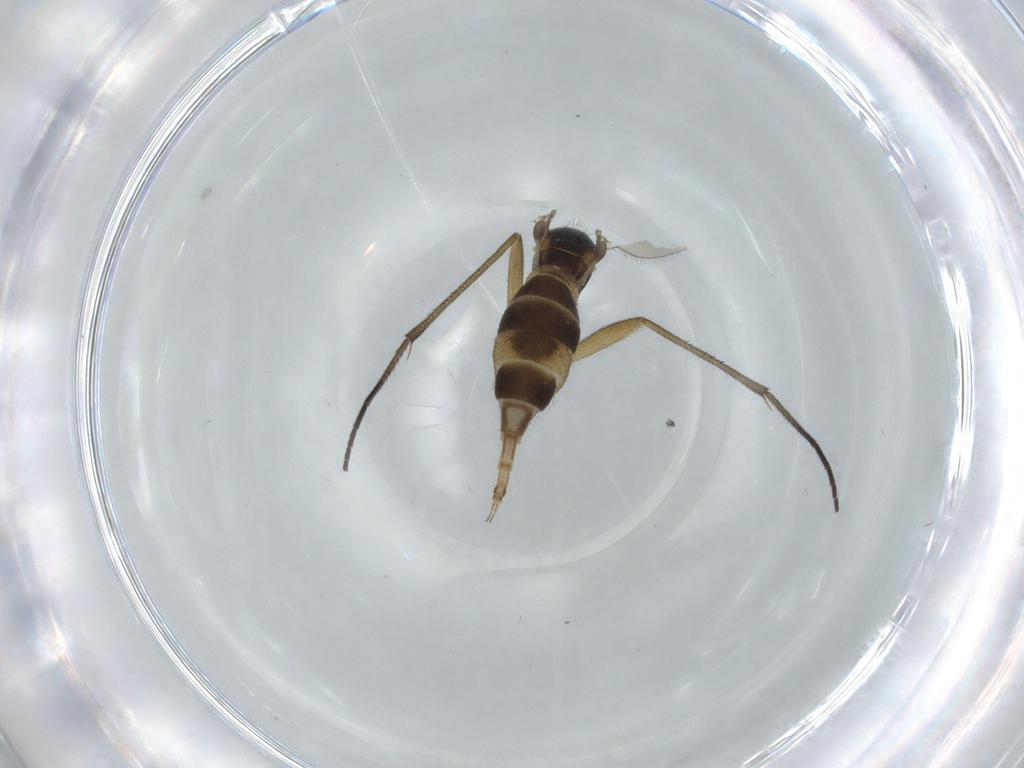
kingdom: Animalia
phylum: Arthropoda
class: Insecta
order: Diptera
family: Sciaridae
